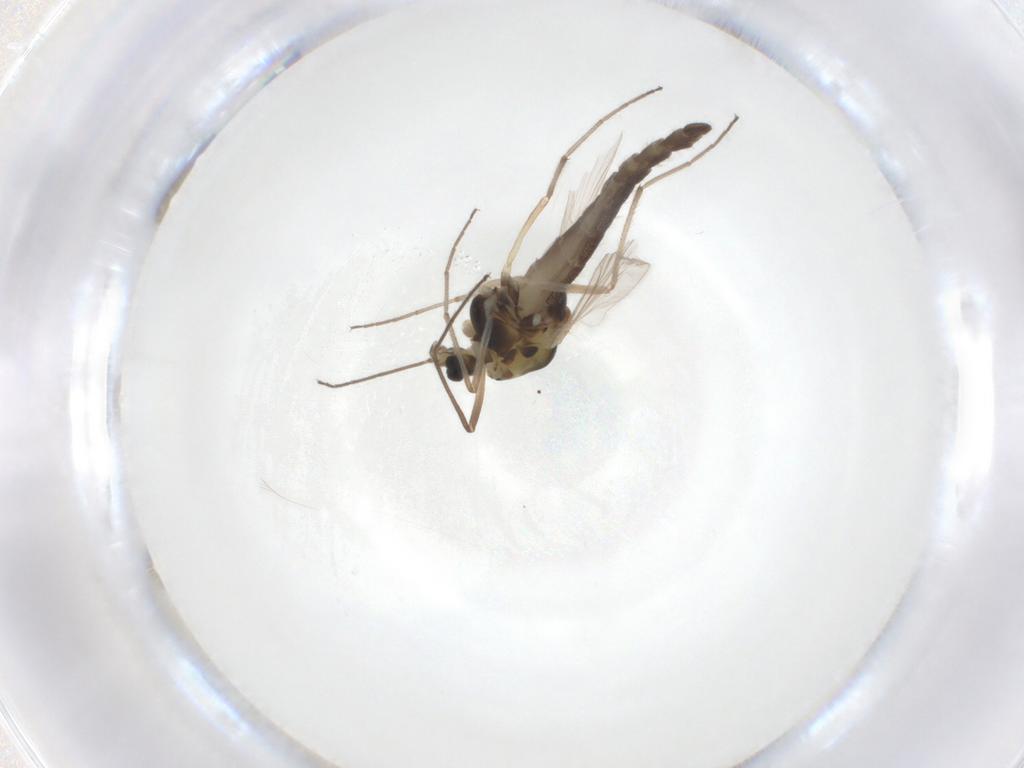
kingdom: Animalia
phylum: Arthropoda
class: Insecta
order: Diptera
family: Chironomidae
